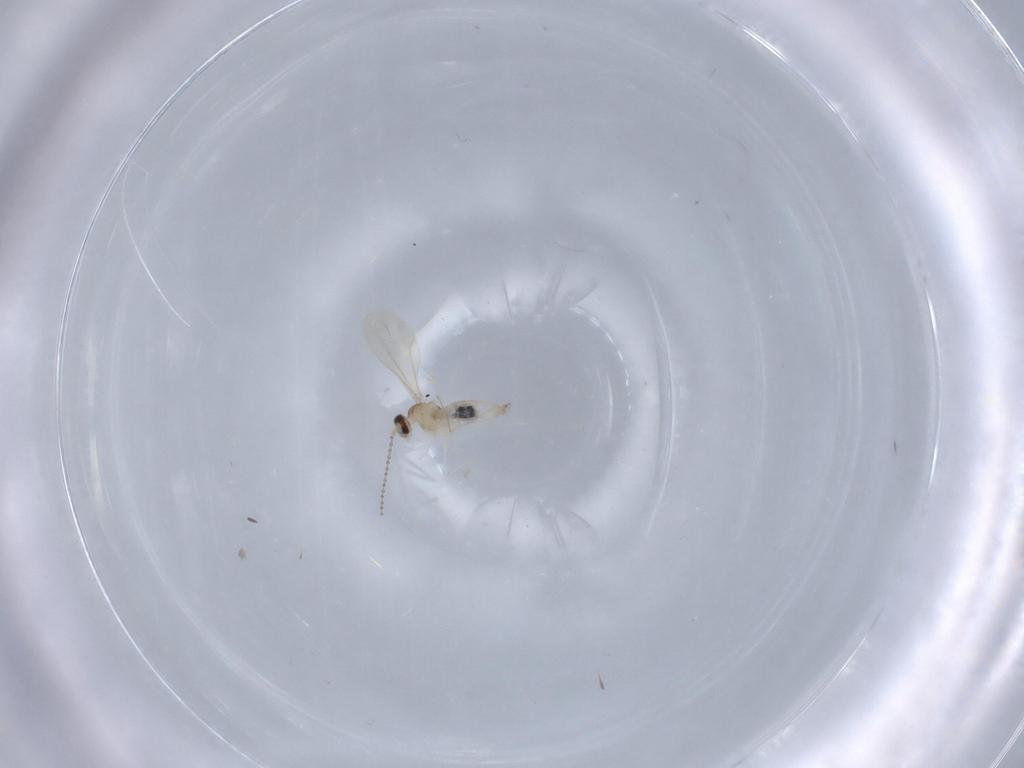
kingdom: Animalia
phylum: Arthropoda
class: Insecta
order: Diptera
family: Cecidomyiidae
